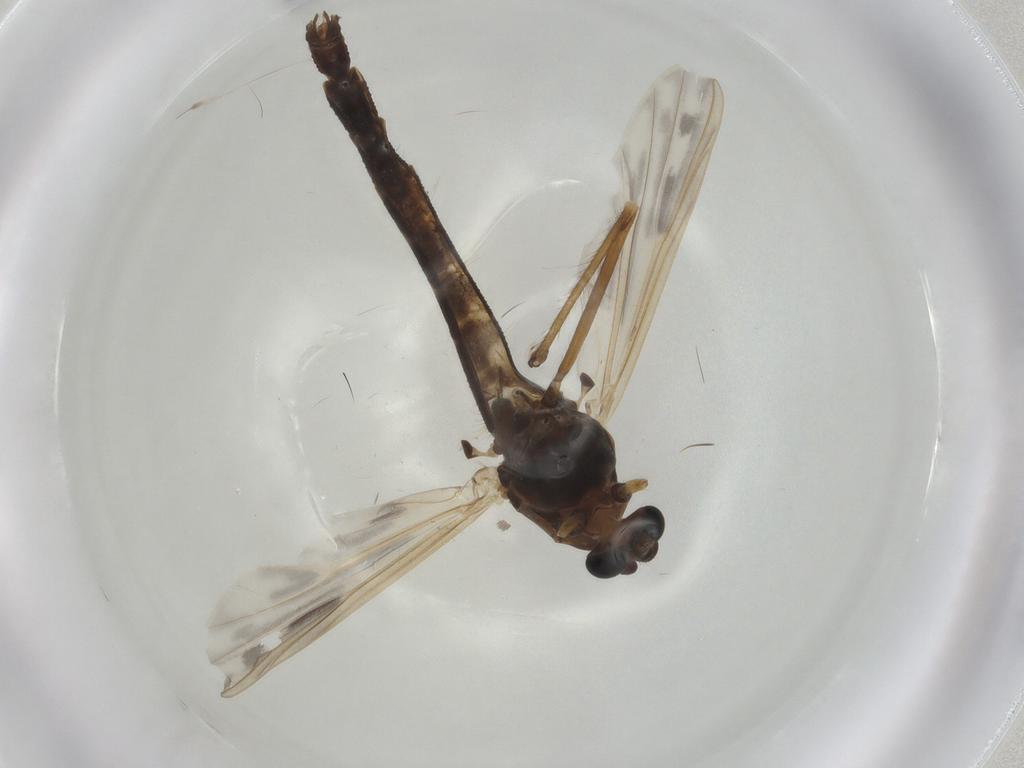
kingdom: Animalia
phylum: Arthropoda
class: Insecta
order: Diptera
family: Chironomidae
